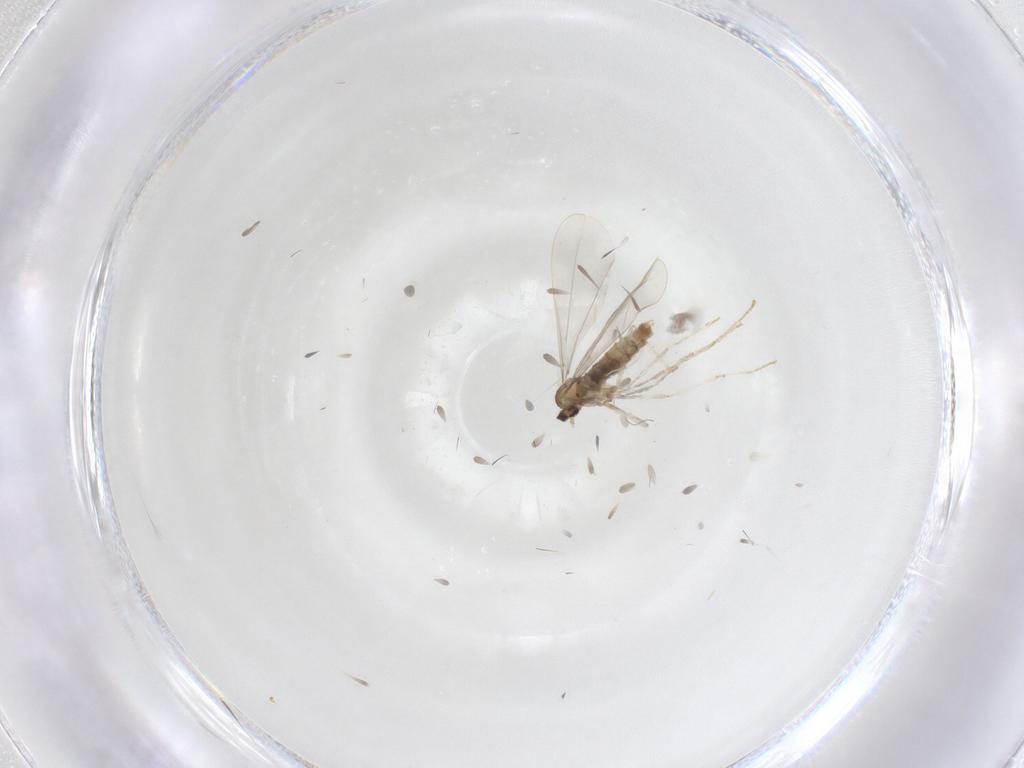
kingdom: Animalia
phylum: Arthropoda
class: Insecta
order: Diptera
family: Cecidomyiidae
